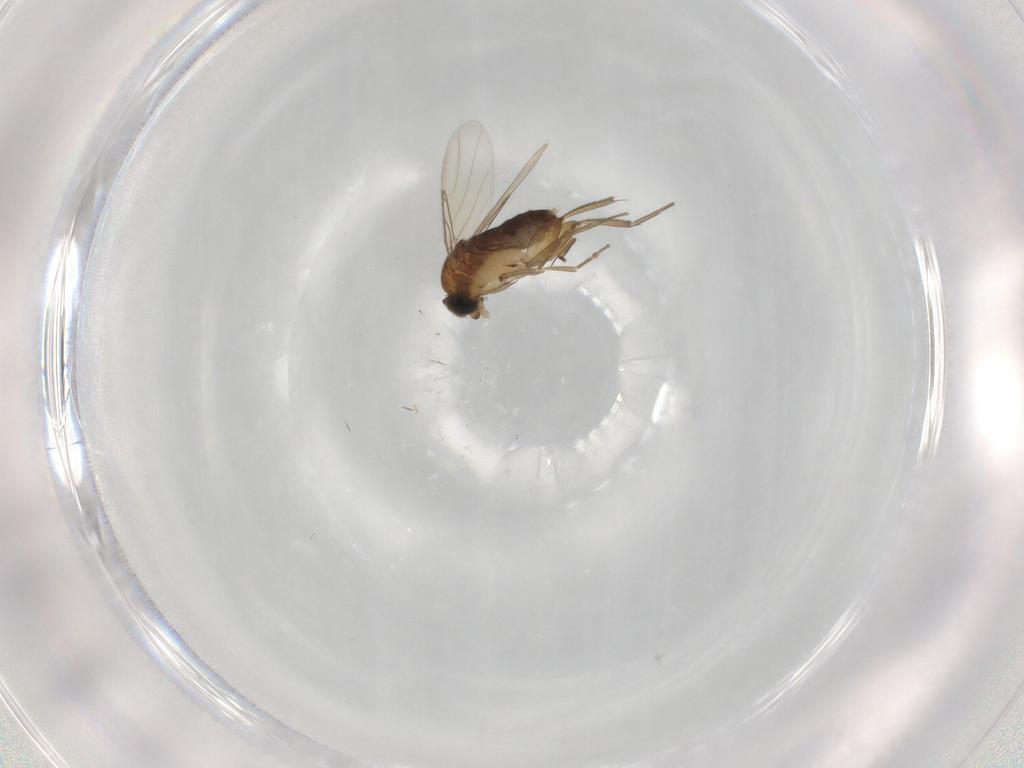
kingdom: Animalia
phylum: Arthropoda
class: Insecta
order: Diptera
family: Phoridae
